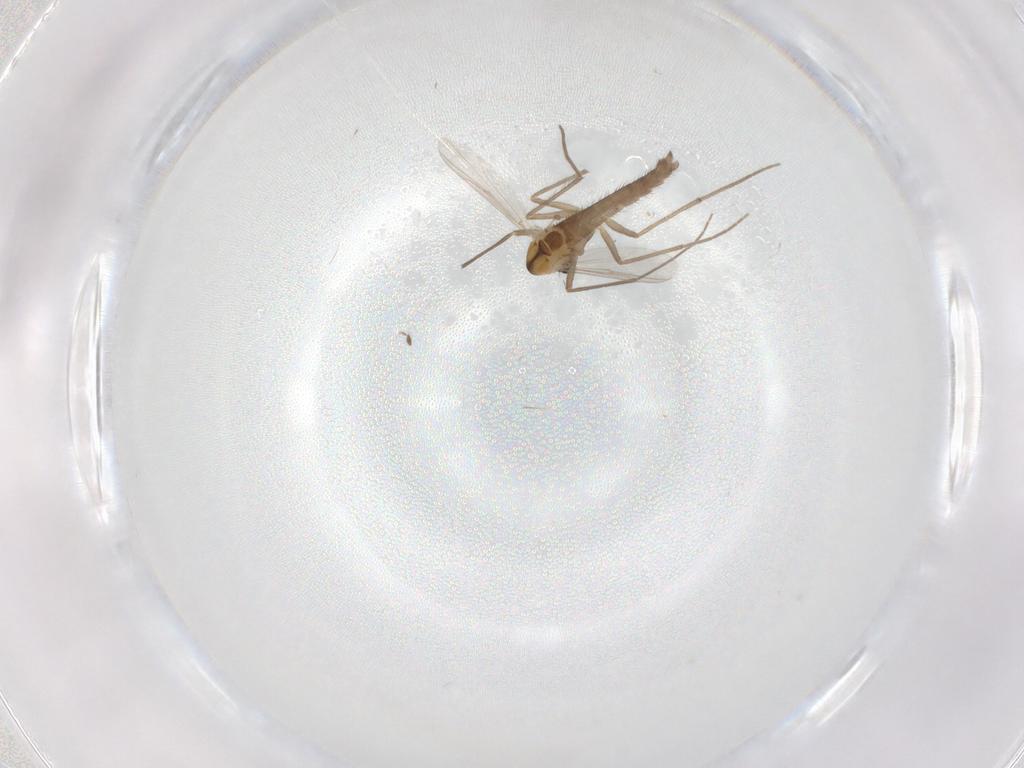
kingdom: Animalia
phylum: Arthropoda
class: Insecta
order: Diptera
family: Chironomidae
